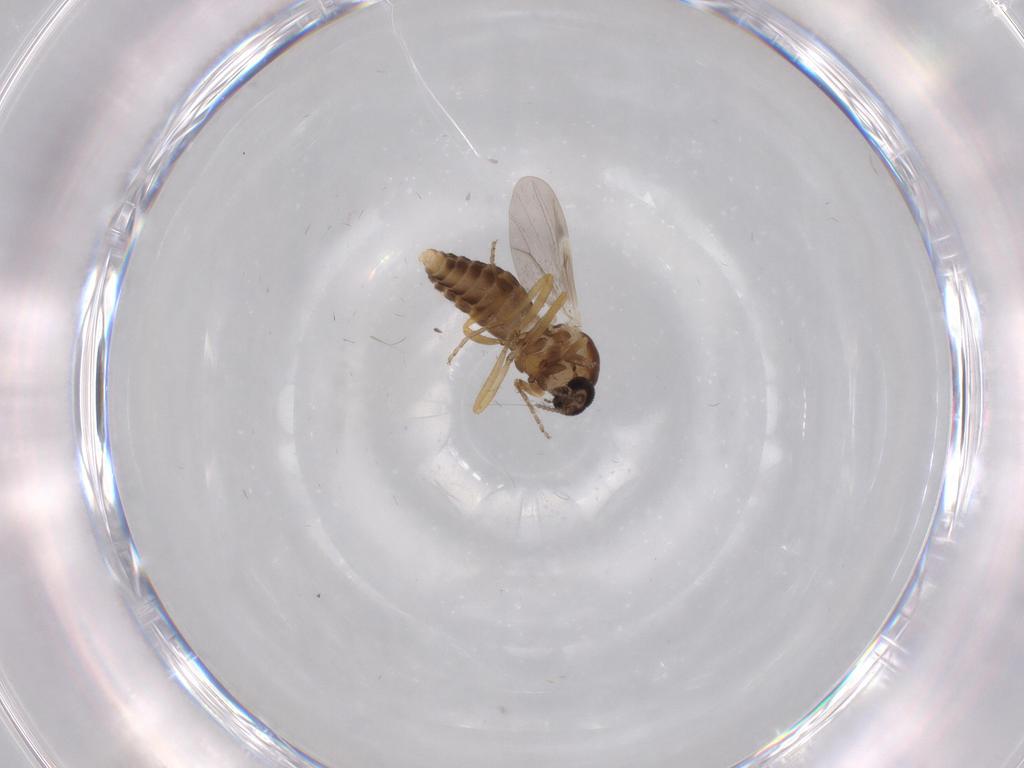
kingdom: Animalia
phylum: Arthropoda
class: Insecta
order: Diptera
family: Ceratopogonidae
